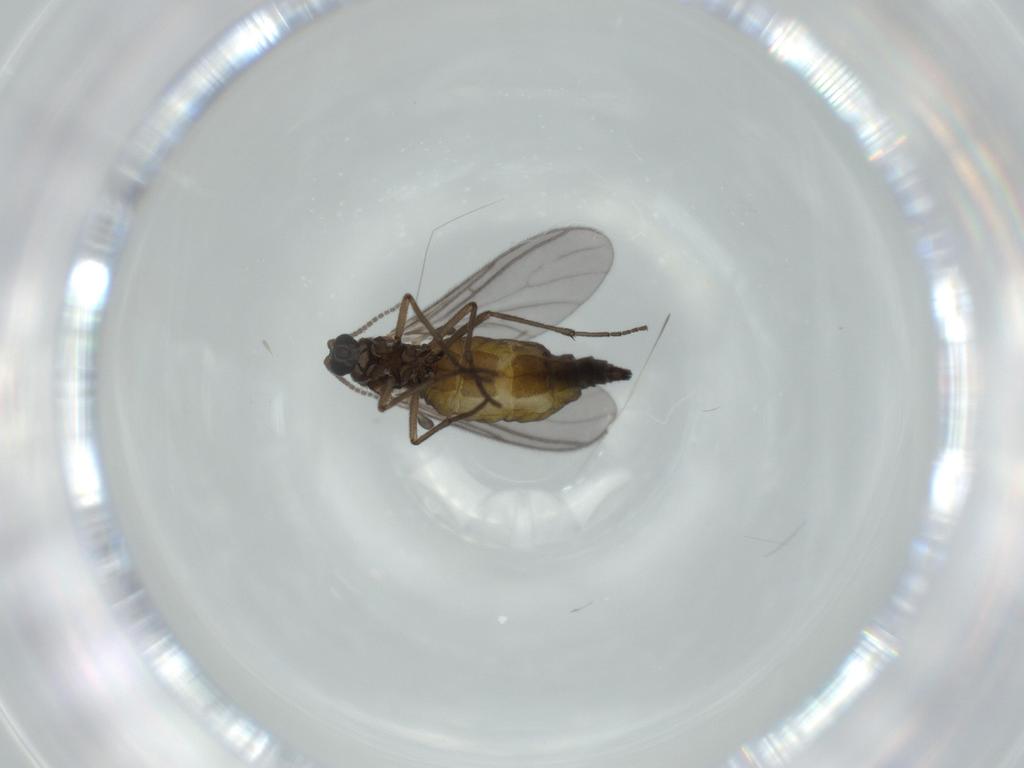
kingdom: Animalia
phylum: Arthropoda
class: Insecta
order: Diptera
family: Sciaridae
